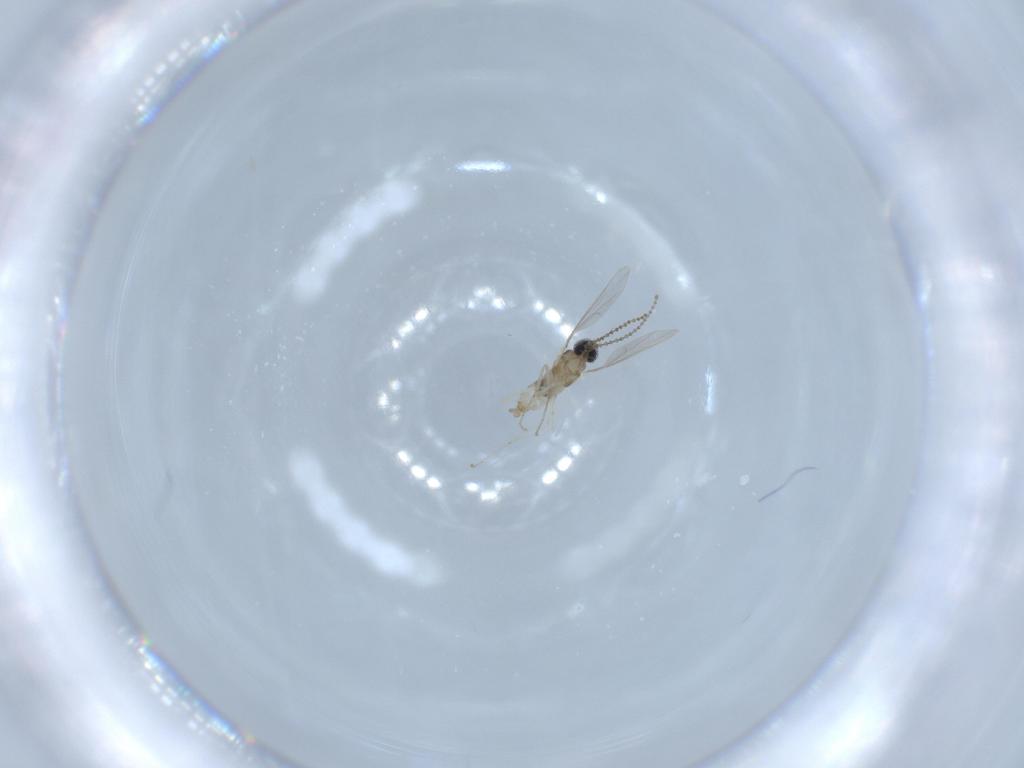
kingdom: Animalia
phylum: Arthropoda
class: Insecta
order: Diptera
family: Cecidomyiidae
